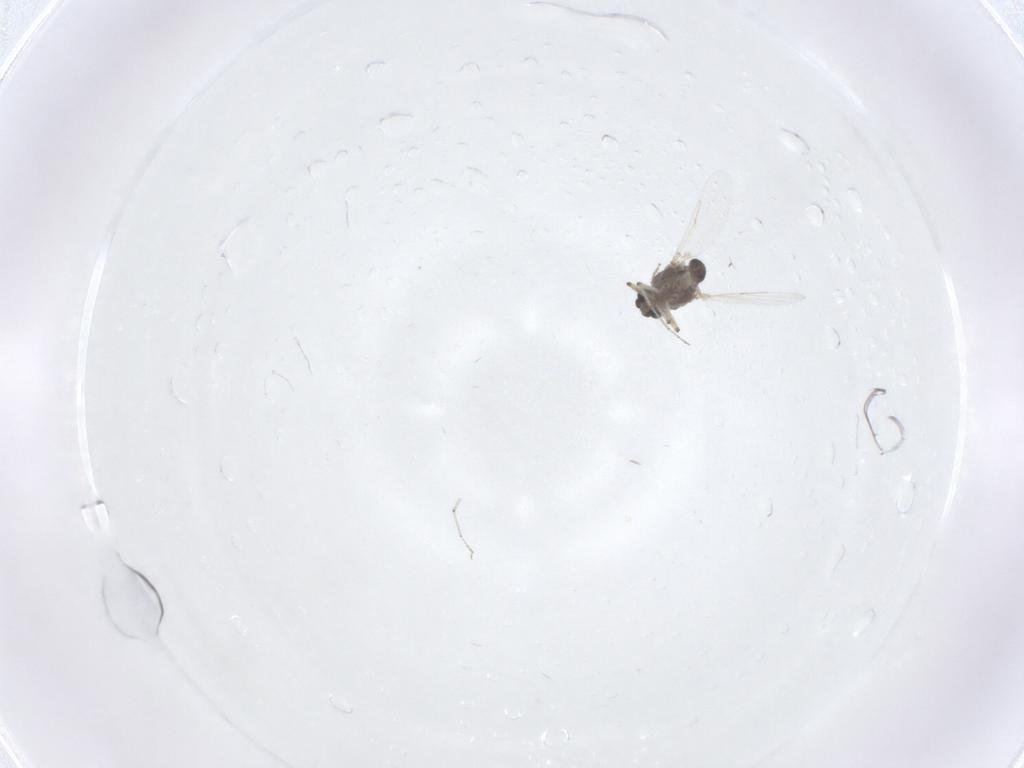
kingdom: Animalia
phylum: Arthropoda
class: Insecta
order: Diptera
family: Ceratopogonidae
